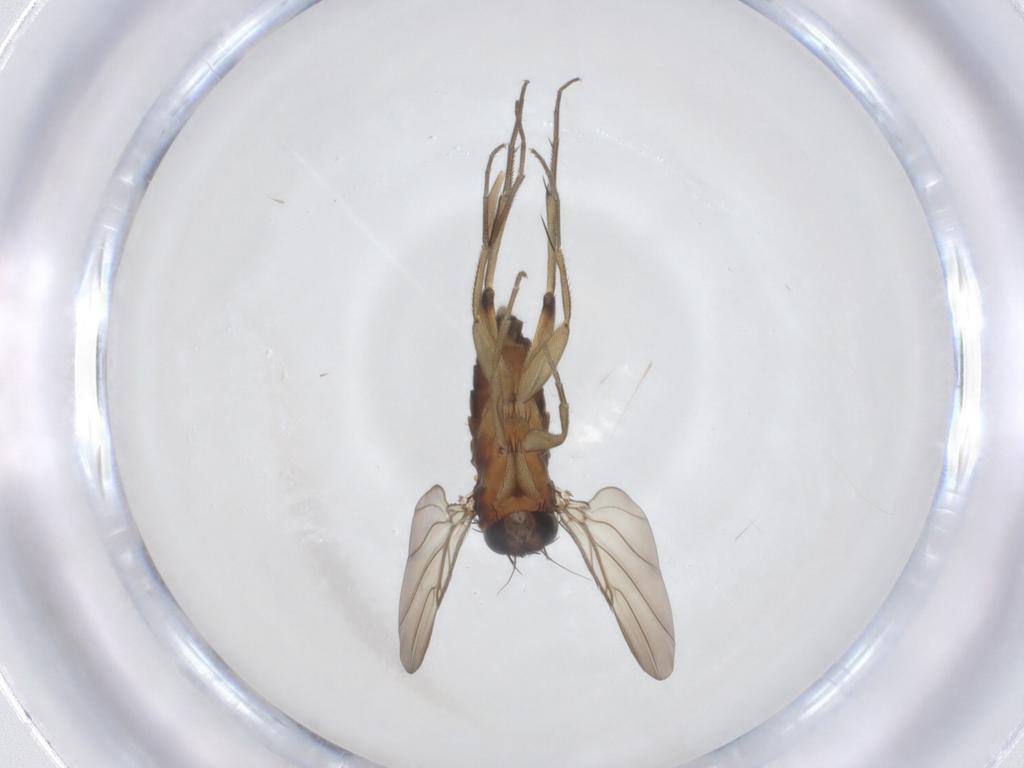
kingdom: Animalia
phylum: Arthropoda
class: Insecta
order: Diptera
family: Phoridae
